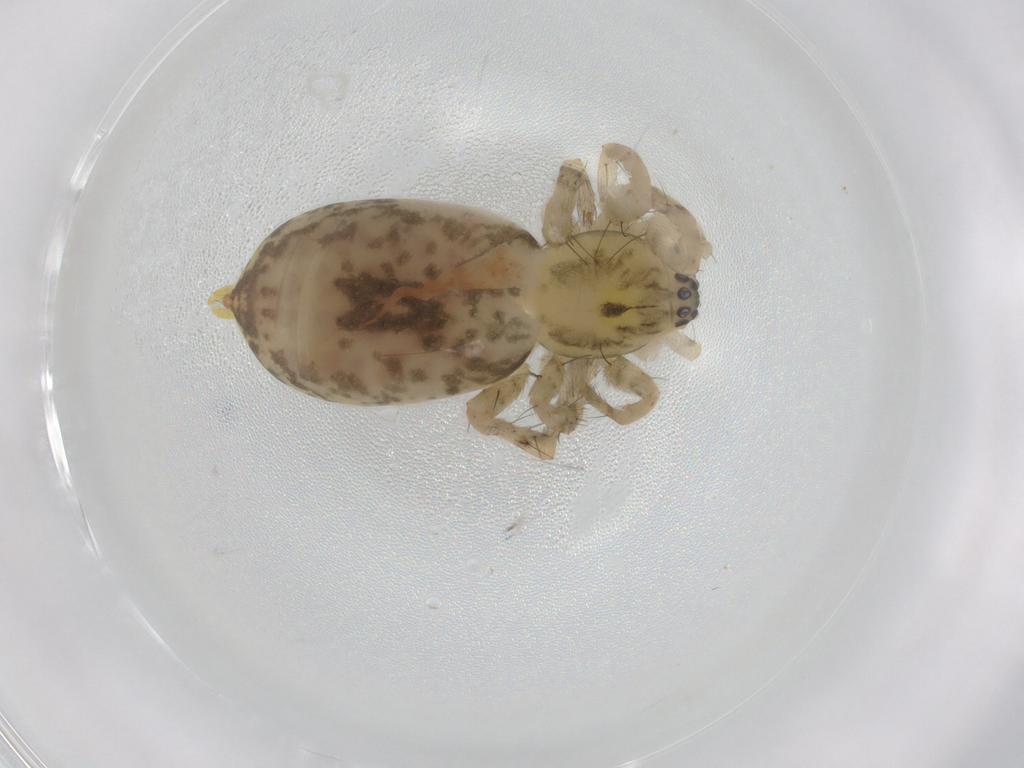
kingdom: Animalia
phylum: Arthropoda
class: Arachnida
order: Araneae
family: Anyphaenidae
